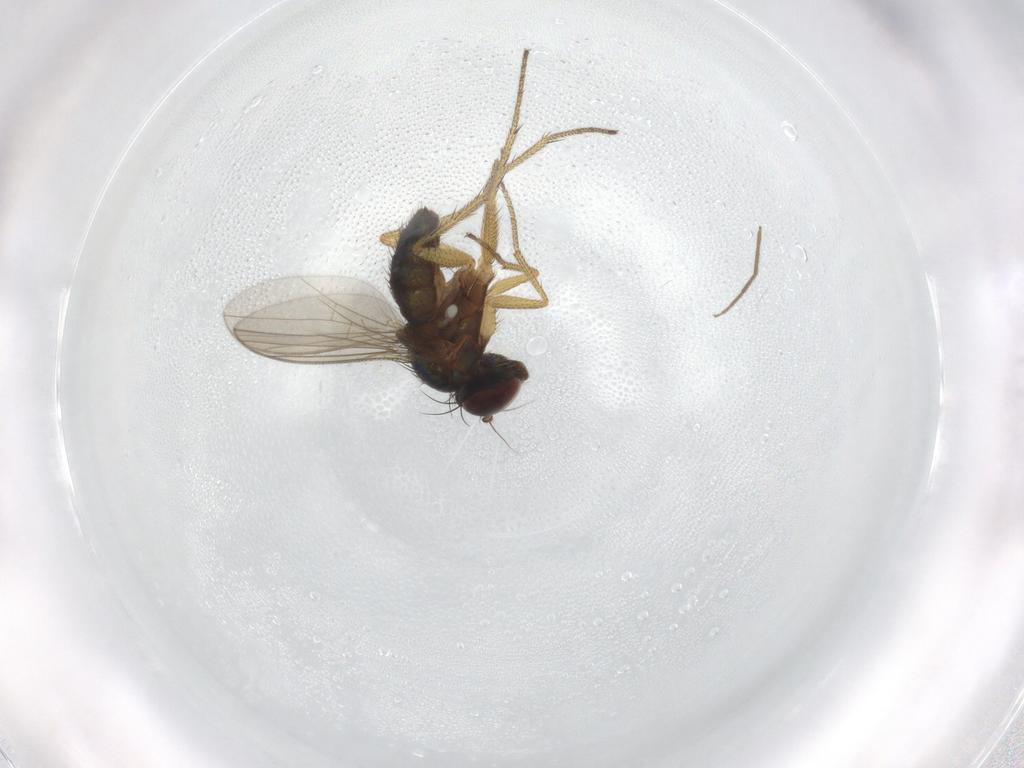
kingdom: Animalia
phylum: Arthropoda
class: Insecta
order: Diptera
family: Dolichopodidae
